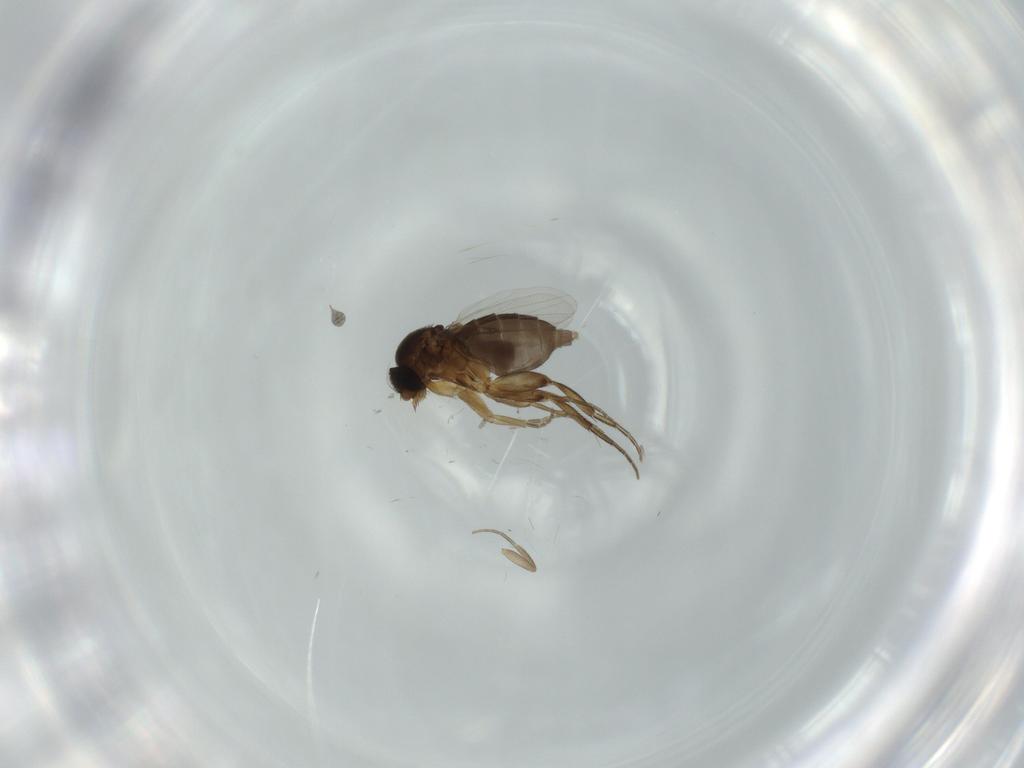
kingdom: Animalia
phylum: Arthropoda
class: Insecta
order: Diptera
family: Phoridae
